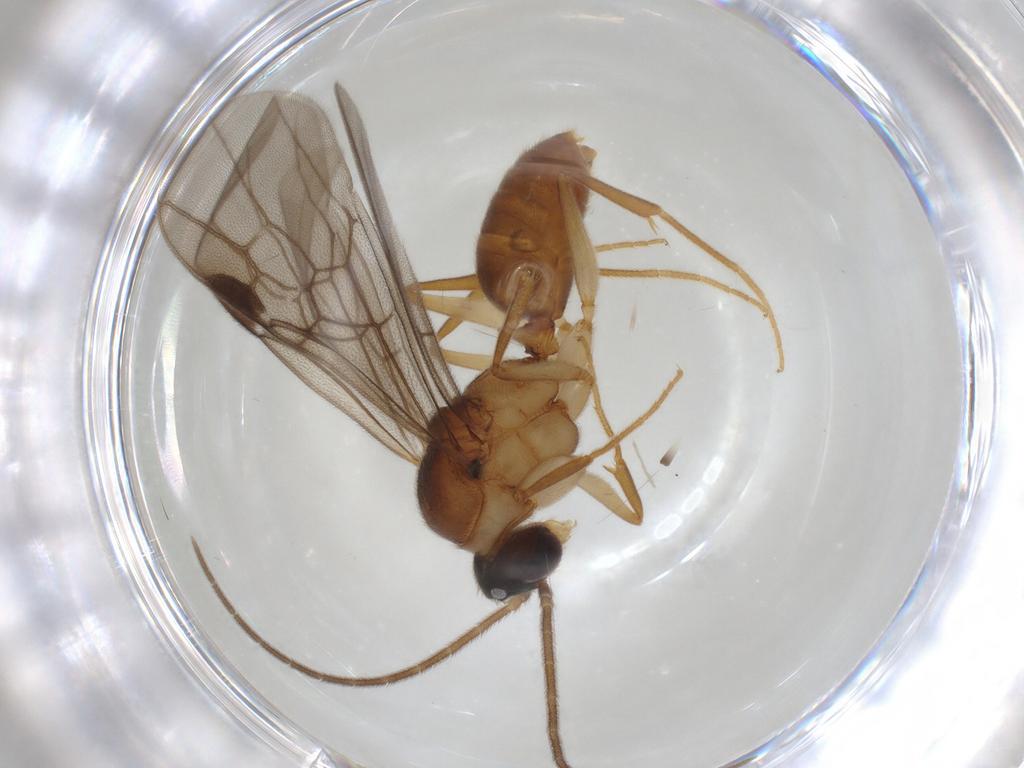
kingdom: Animalia
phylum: Arthropoda
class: Insecta
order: Hymenoptera
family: Formicidae
